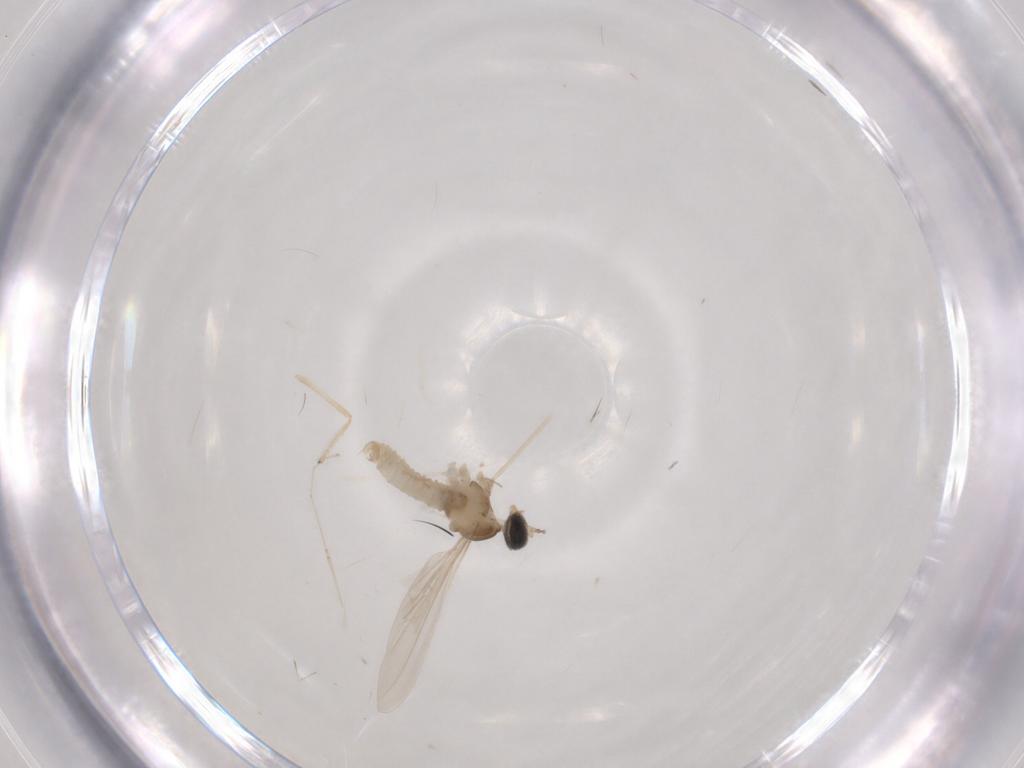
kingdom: Animalia
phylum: Arthropoda
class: Insecta
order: Diptera
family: Cecidomyiidae
